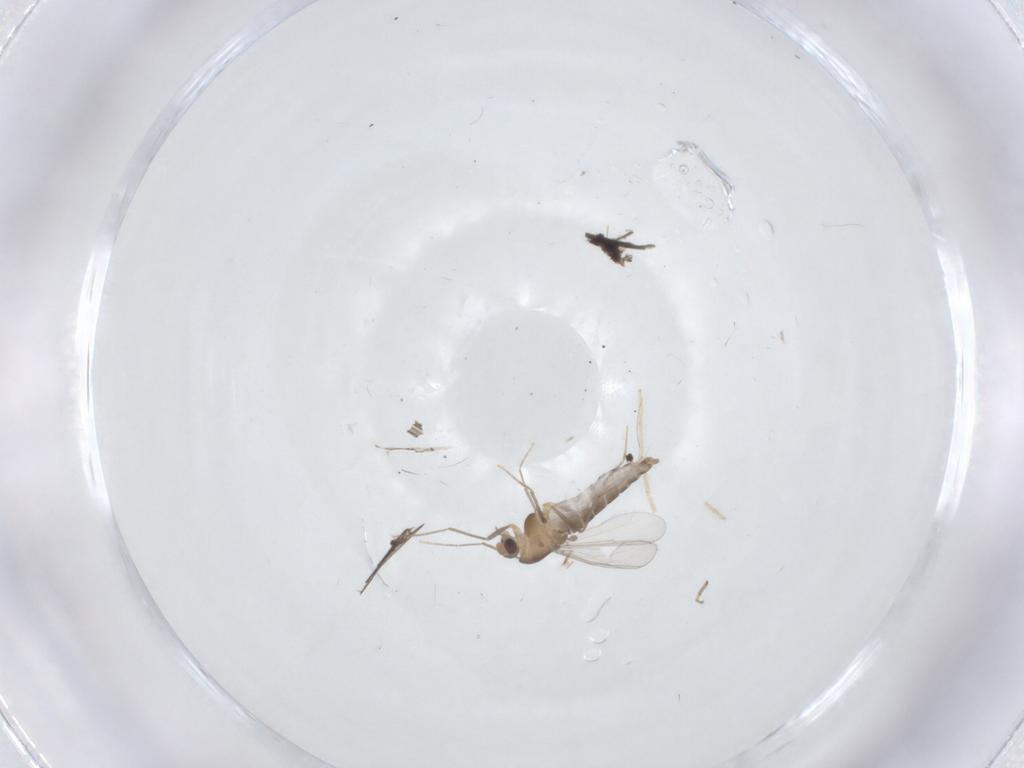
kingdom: Animalia
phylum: Arthropoda
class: Insecta
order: Diptera
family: Chironomidae
